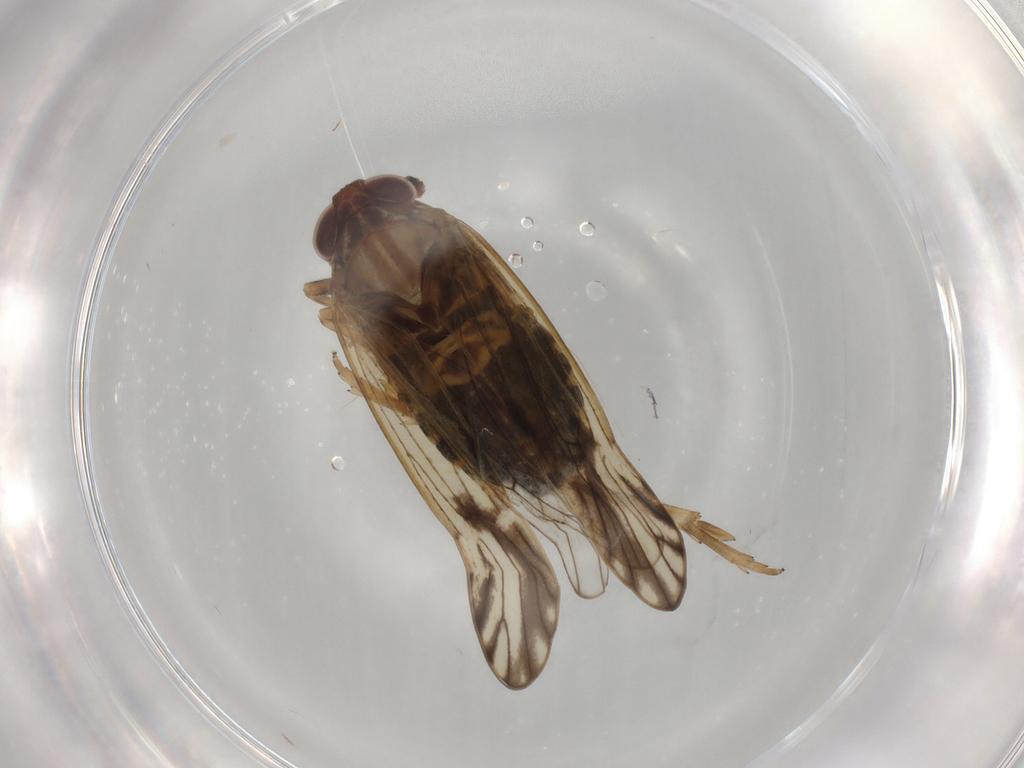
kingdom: Animalia
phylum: Arthropoda
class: Insecta
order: Hemiptera
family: Delphacidae
